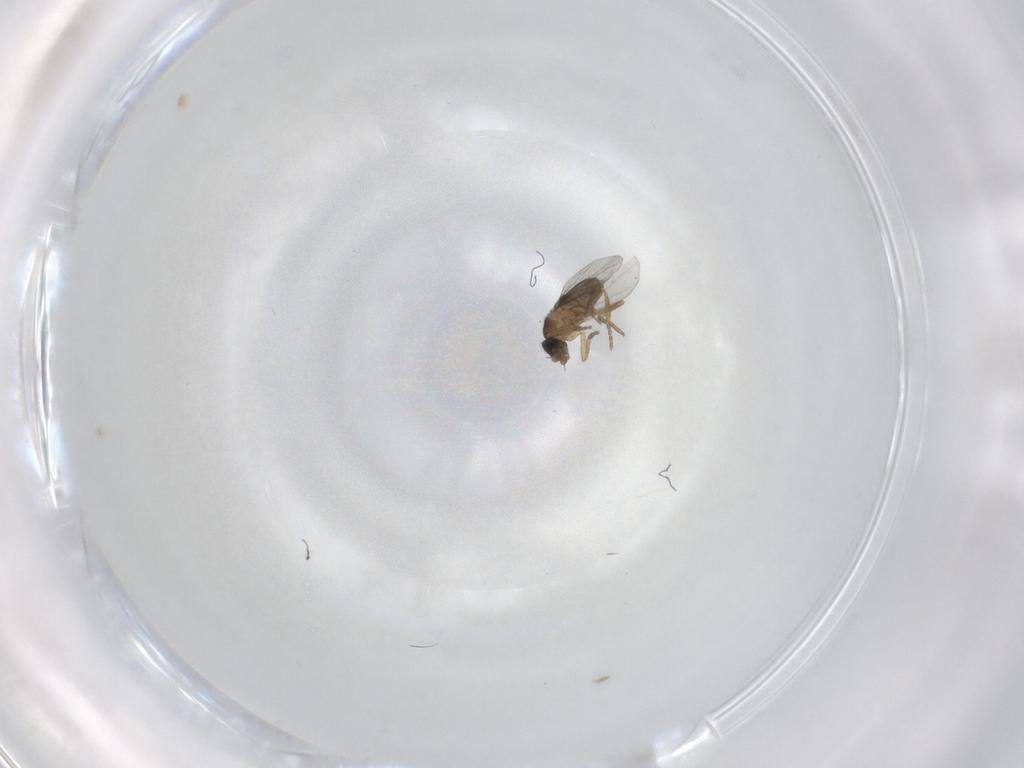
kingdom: Animalia
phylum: Arthropoda
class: Insecta
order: Diptera
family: Phoridae
